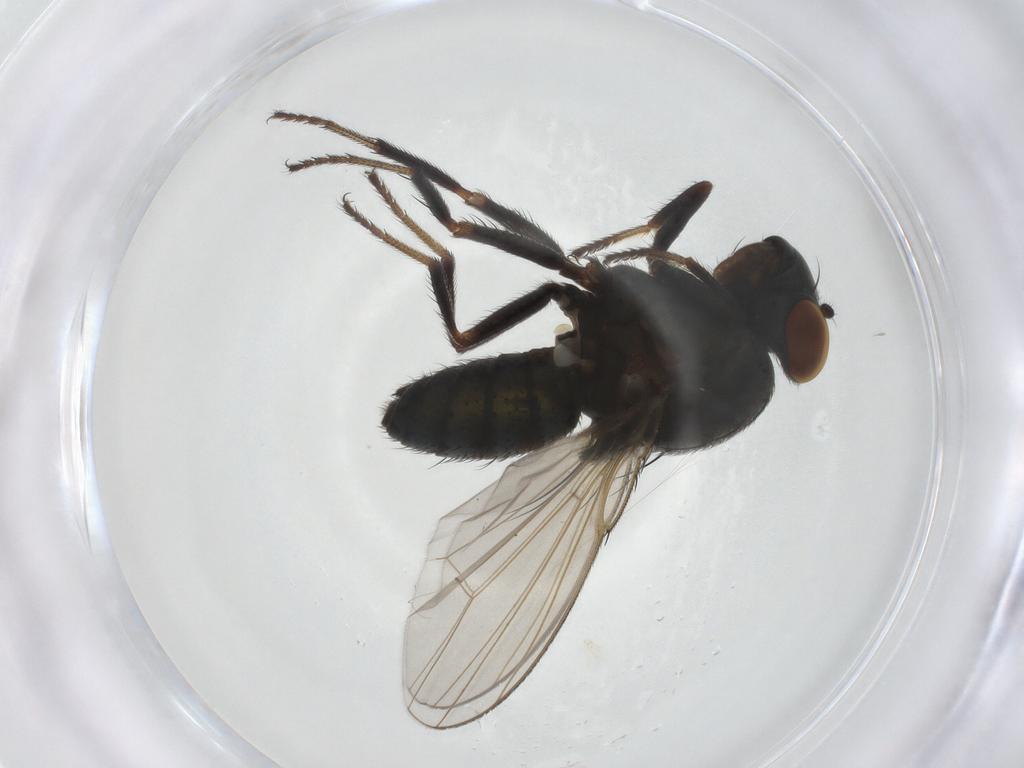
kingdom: Animalia
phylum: Arthropoda
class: Insecta
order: Diptera
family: Ephydridae
